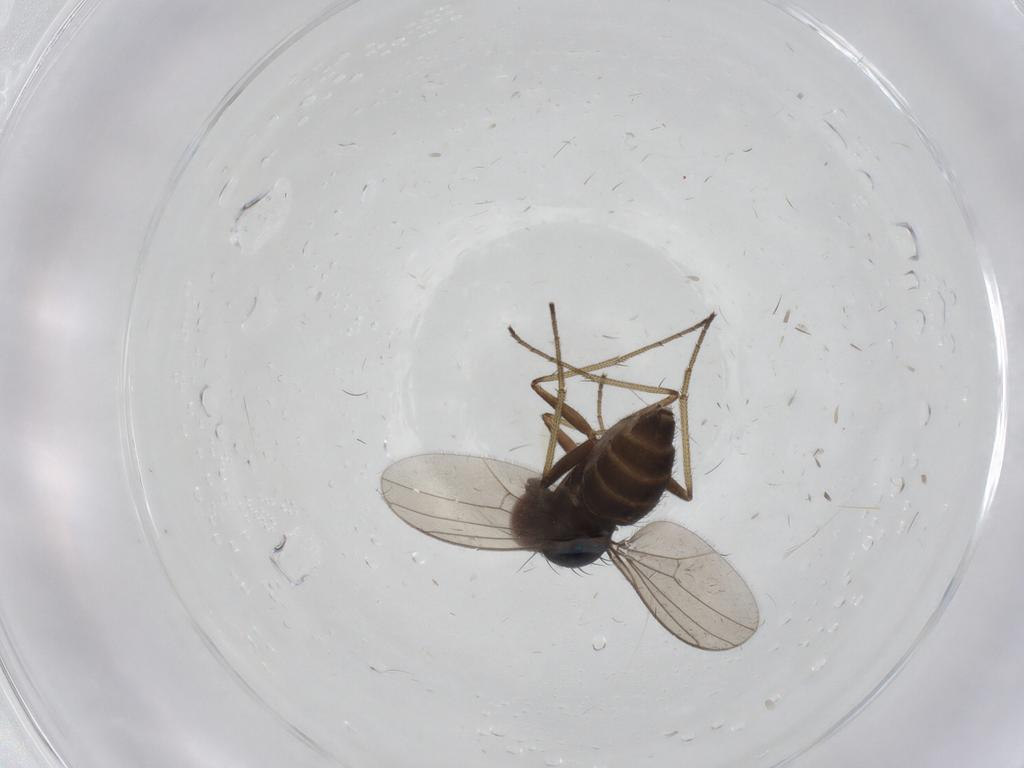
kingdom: Animalia
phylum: Arthropoda
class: Insecta
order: Diptera
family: Dolichopodidae
